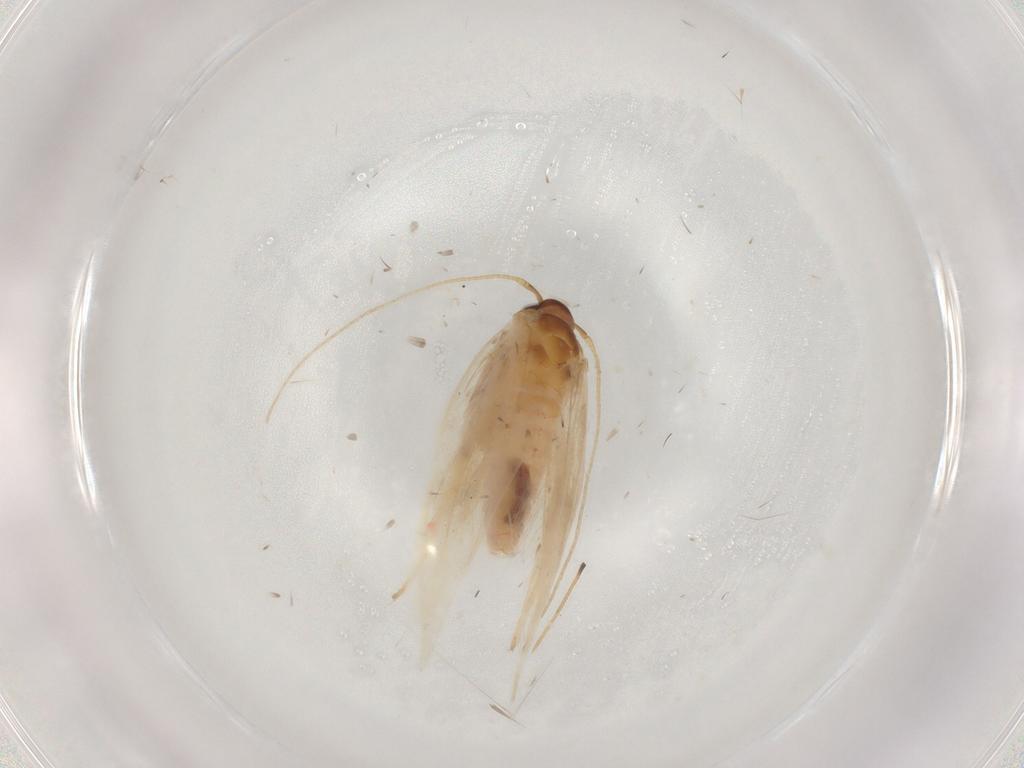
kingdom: Animalia
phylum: Arthropoda
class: Insecta
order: Lepidoptera
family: Gelechiidae
